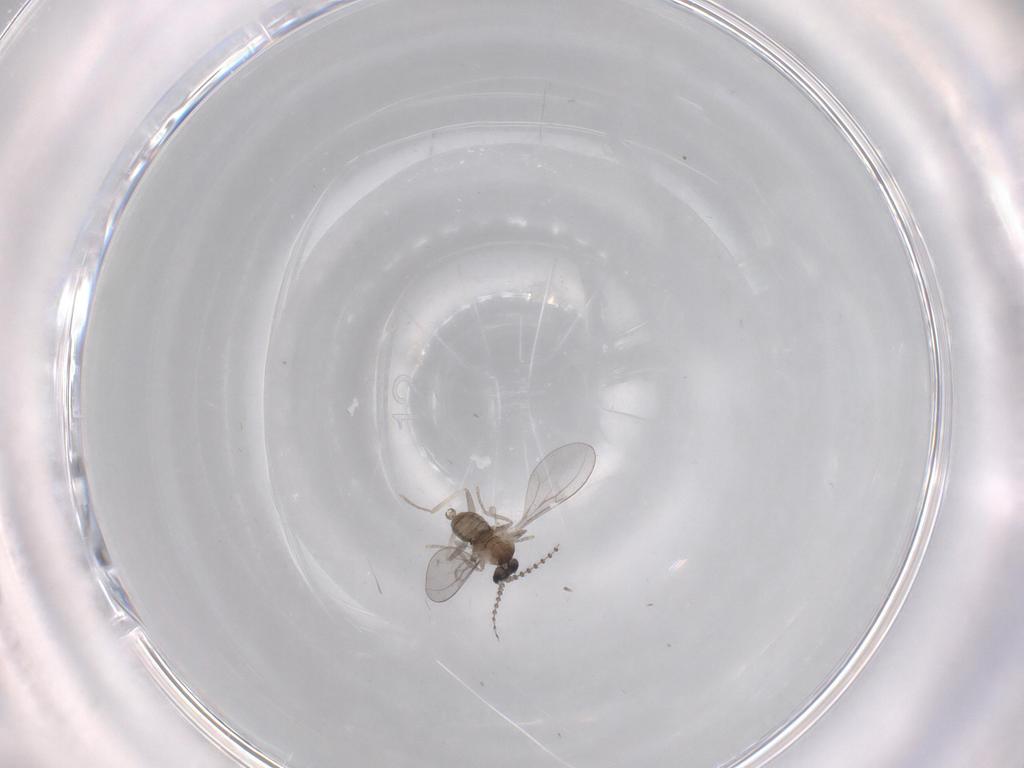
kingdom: Animalia
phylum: Arthropoda
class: Insecta
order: Diptera
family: Cecidomyiidae
